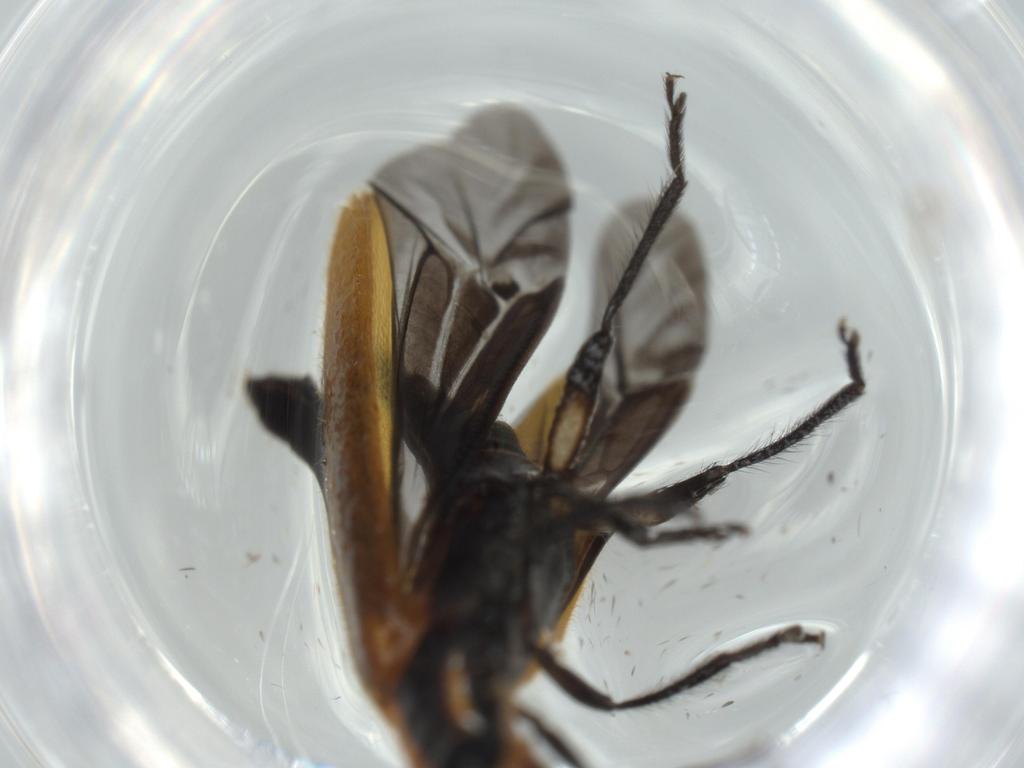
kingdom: Animalia
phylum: Arthropoda
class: Insecta
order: Coleoptera
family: Cleridae
